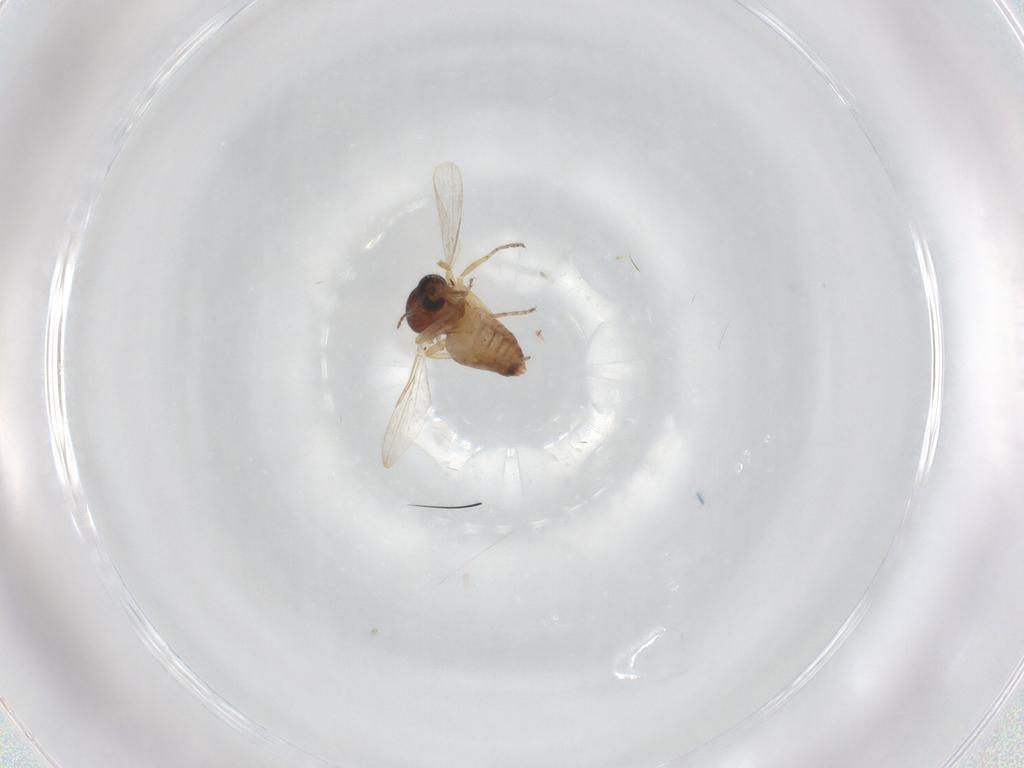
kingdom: Animalia
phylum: Arthropoda
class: Insecta
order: Diptera
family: Ceratopogonidae
